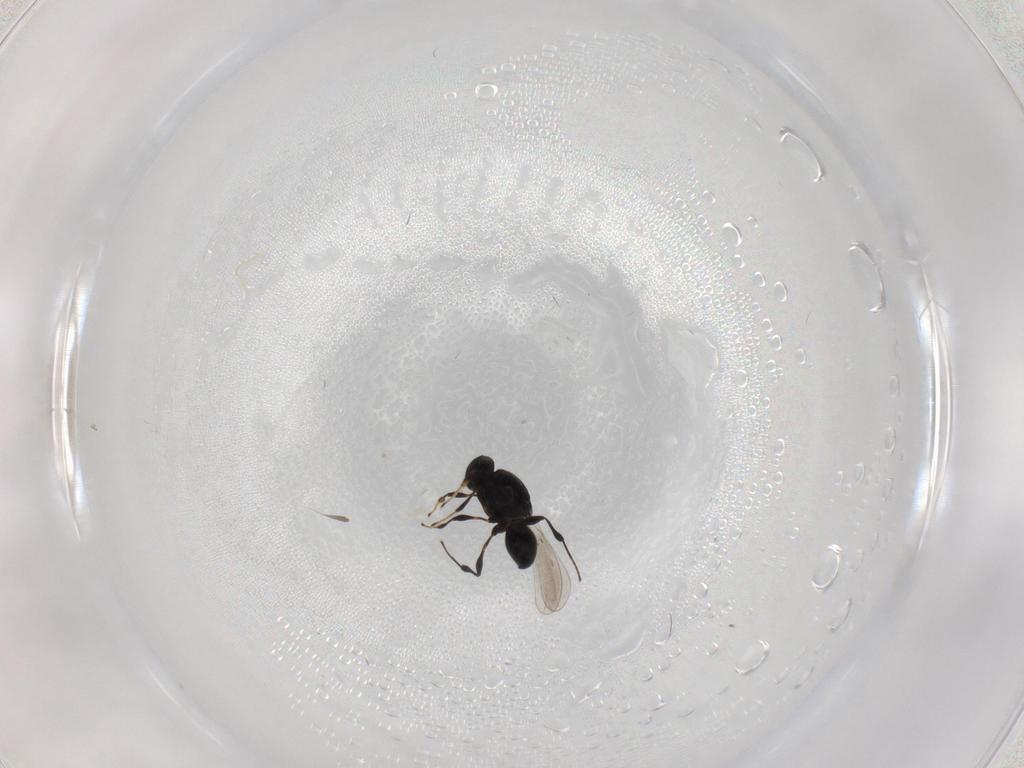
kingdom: Animalia
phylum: Arthropoda
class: Insecta
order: Hymenoptera
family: Platygastridae
